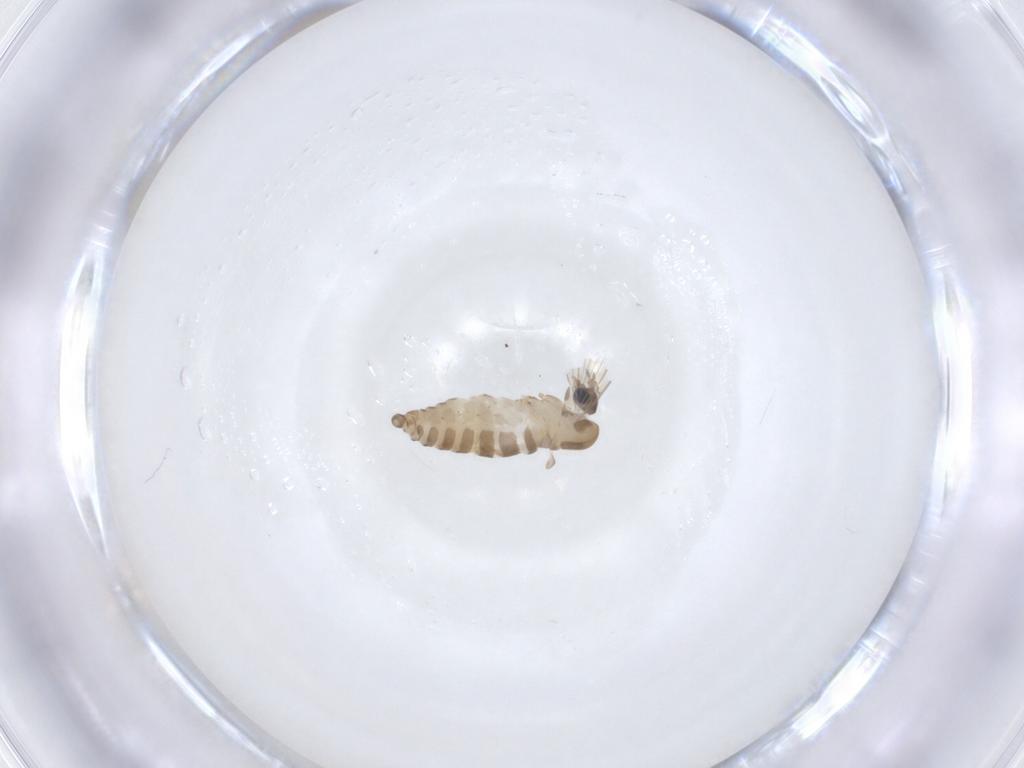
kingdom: Animalia
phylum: Arthropoda
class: Insecta
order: Diptera
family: Psychodidae
